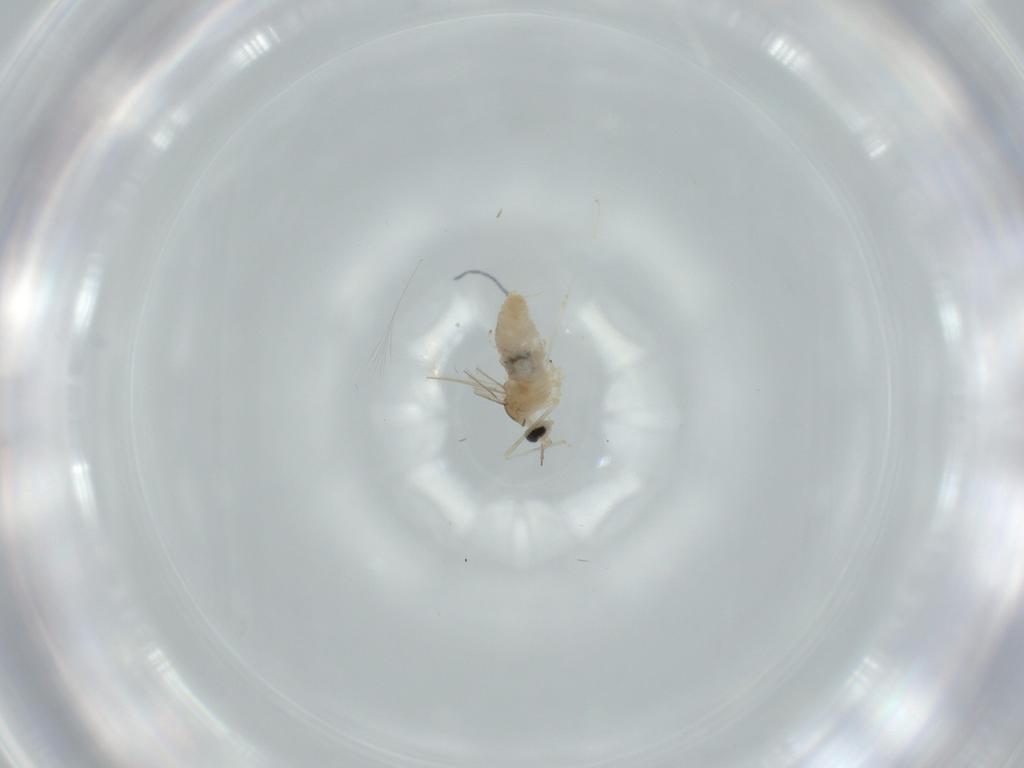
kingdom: Animalia
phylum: Arthropoda
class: Insecta
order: Diptera
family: Cecidomyiidae
